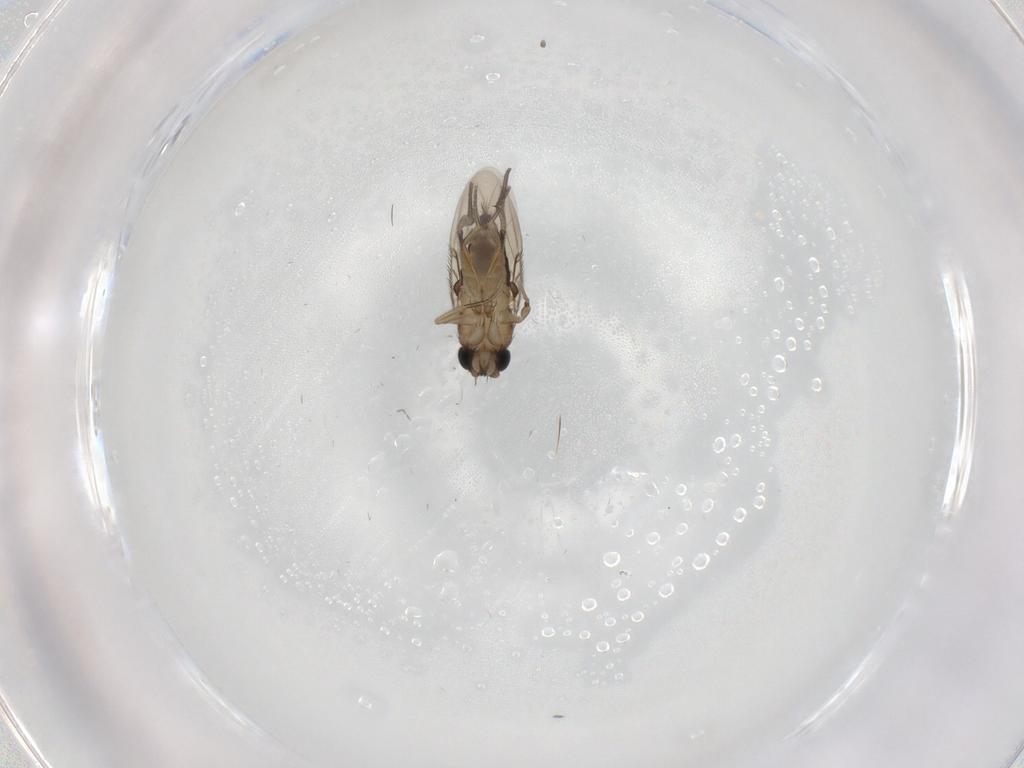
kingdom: Animalia
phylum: Arthropoda
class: Insecta
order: Diptera
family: Phoridae
